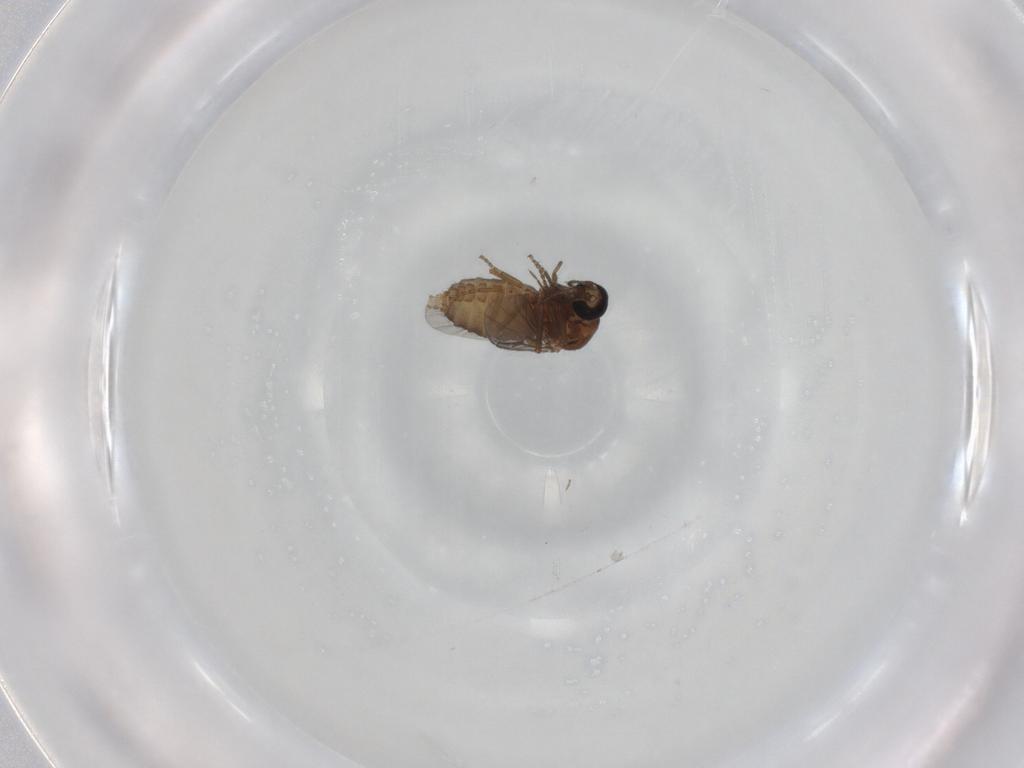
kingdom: Animalia
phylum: Arthropoda
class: Insecta
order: Diptera
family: Ceratopogonidae
